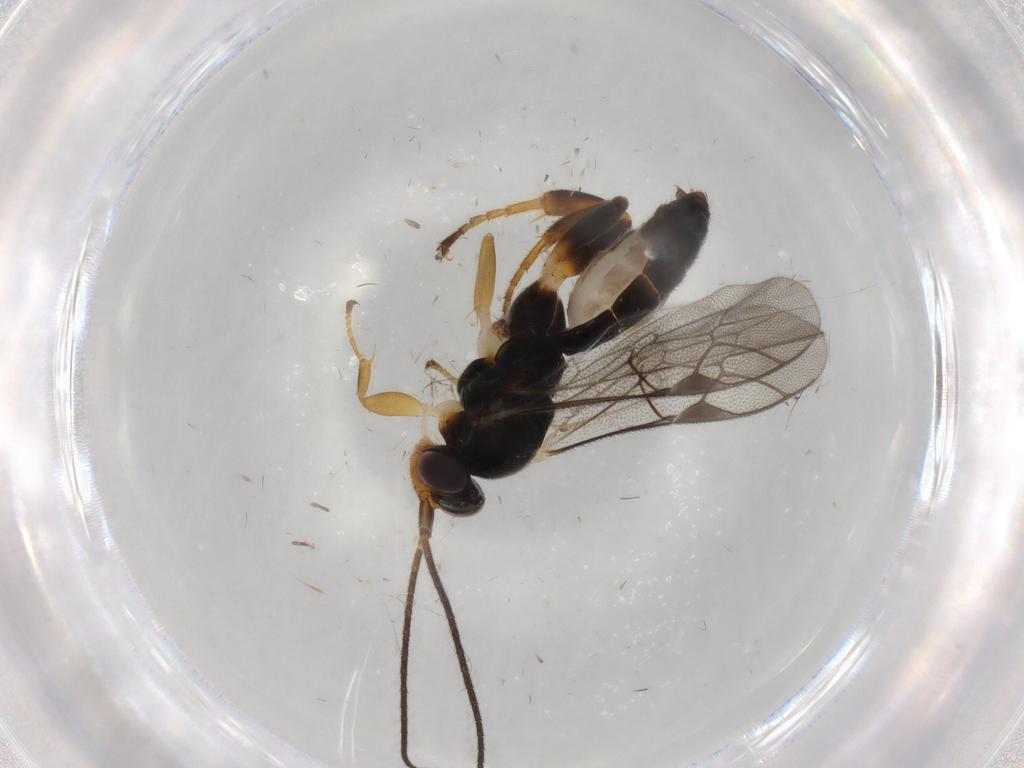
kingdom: Animalia
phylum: Arthropoda
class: Insecta
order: Hymenoptera
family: Ichneumonidae
